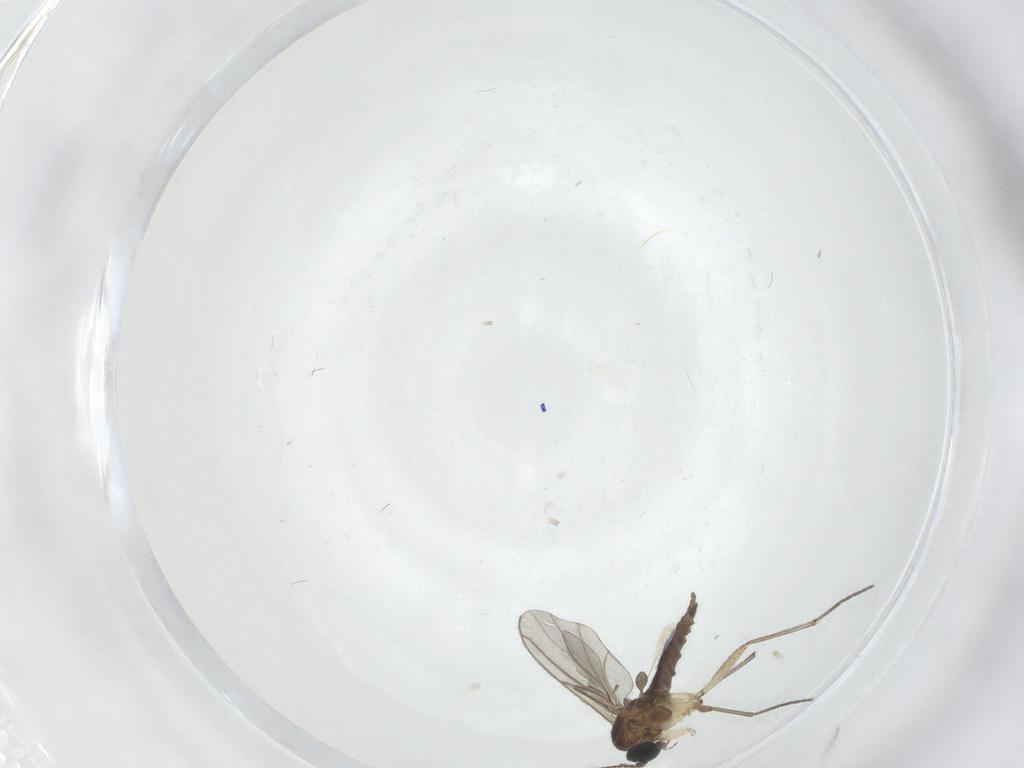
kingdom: Animalia
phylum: Arthropoda
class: Insecta
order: Diptera
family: Sciaridae
